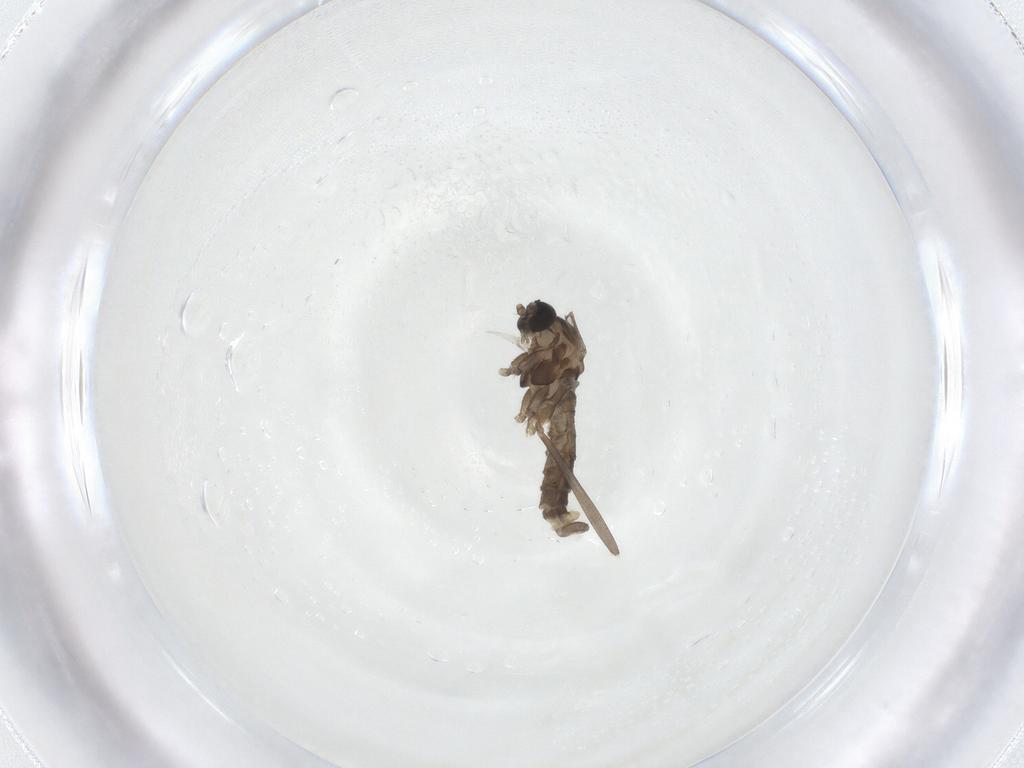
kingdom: Animalia
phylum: Arthropoda
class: Insecta
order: Diptera
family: Cecidomyiidae
